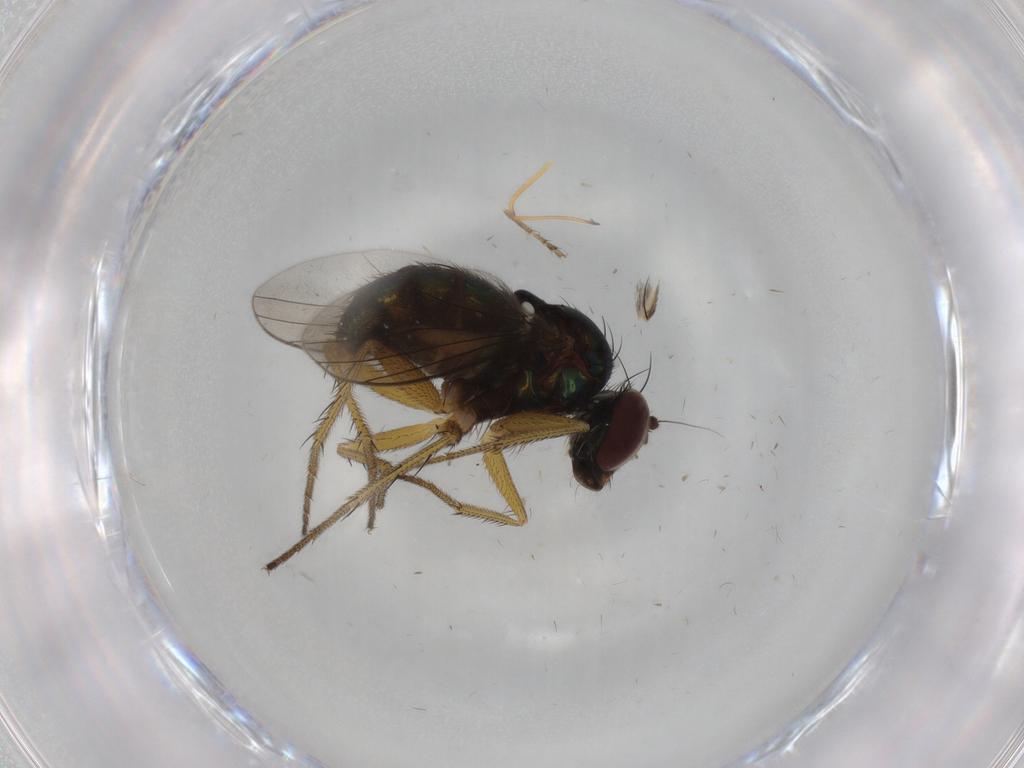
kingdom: Animalia
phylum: Arthropoda
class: Insecta
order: Diptera
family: Dolichopodidae
